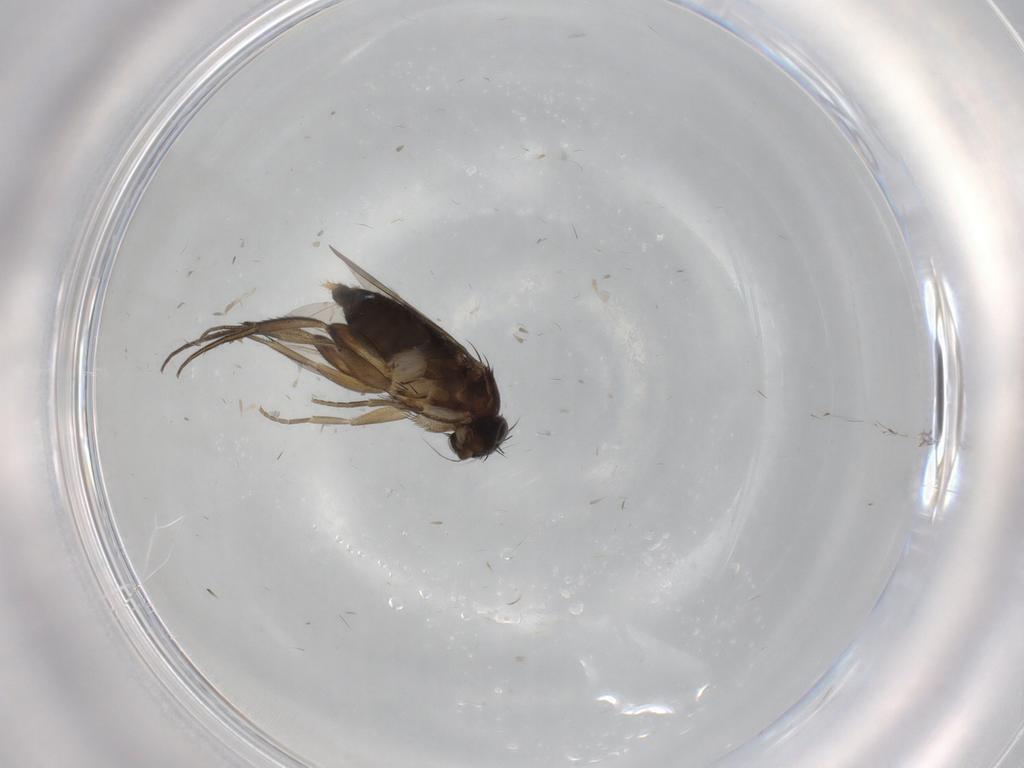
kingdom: Animalia
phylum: Arthropoda
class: Insecta
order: Diptera
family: Phoridae
